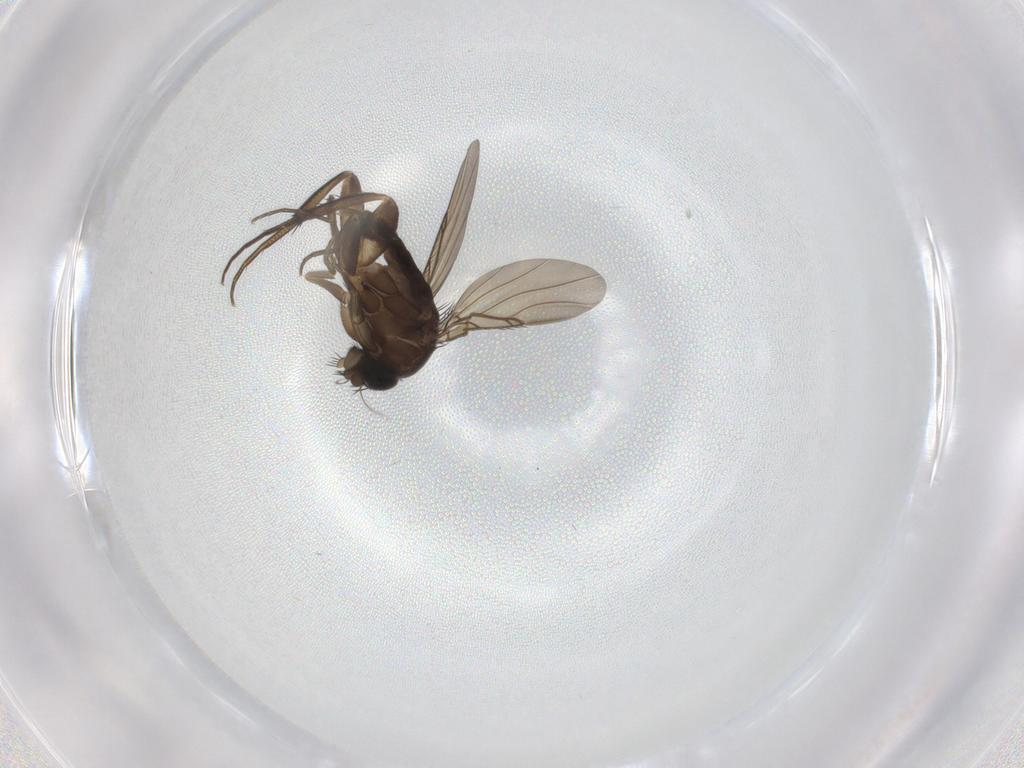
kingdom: Animalia
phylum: Arthropoda
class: Insecta
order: Diptera
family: Phoridae
